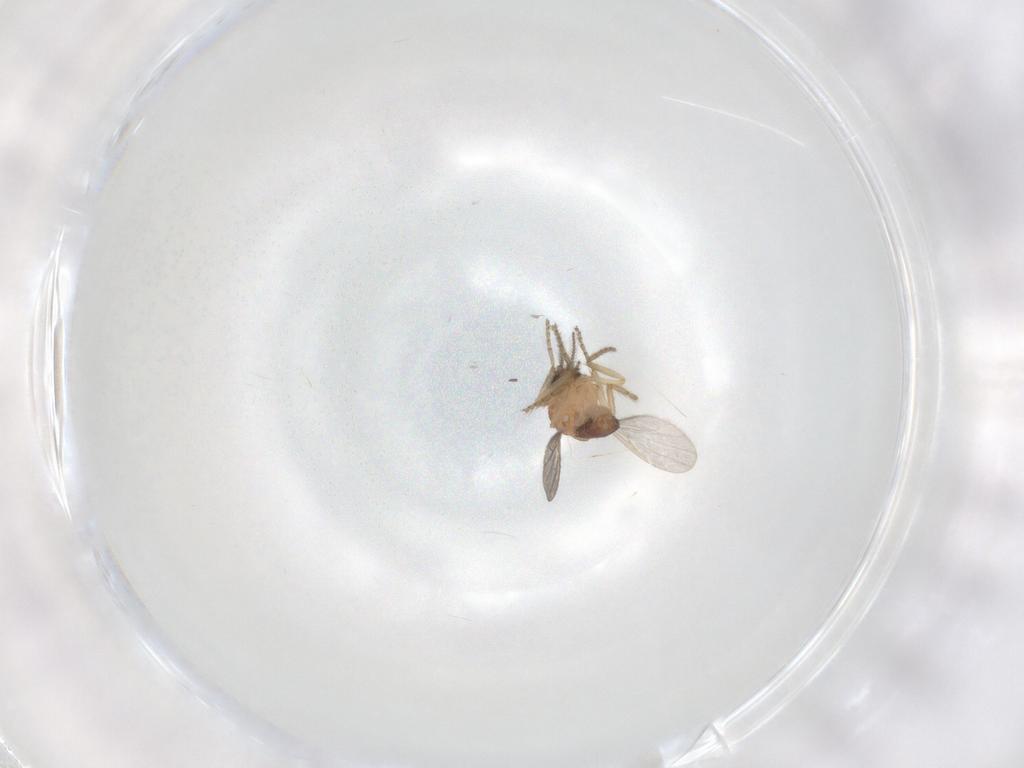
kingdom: Animalia
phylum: Arthropoda
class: Insecta
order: Diptera
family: Ceratopogonidae
